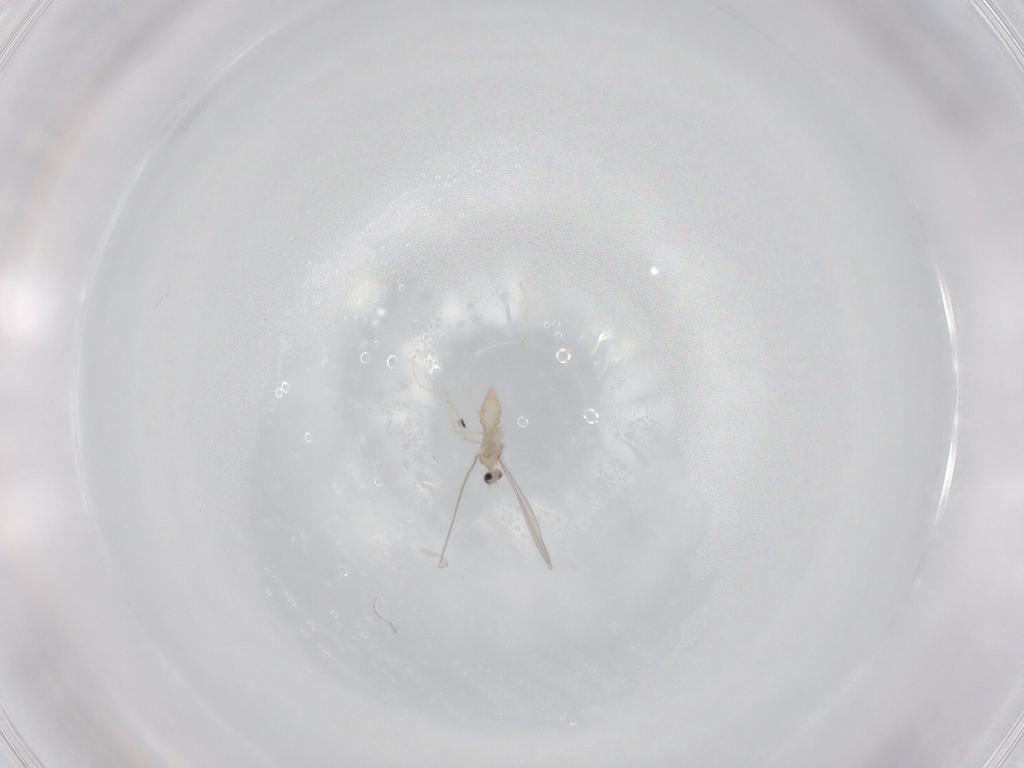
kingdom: Animalia
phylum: Arthropoda
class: Insecta
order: Diptera
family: Cecidomyiidae
